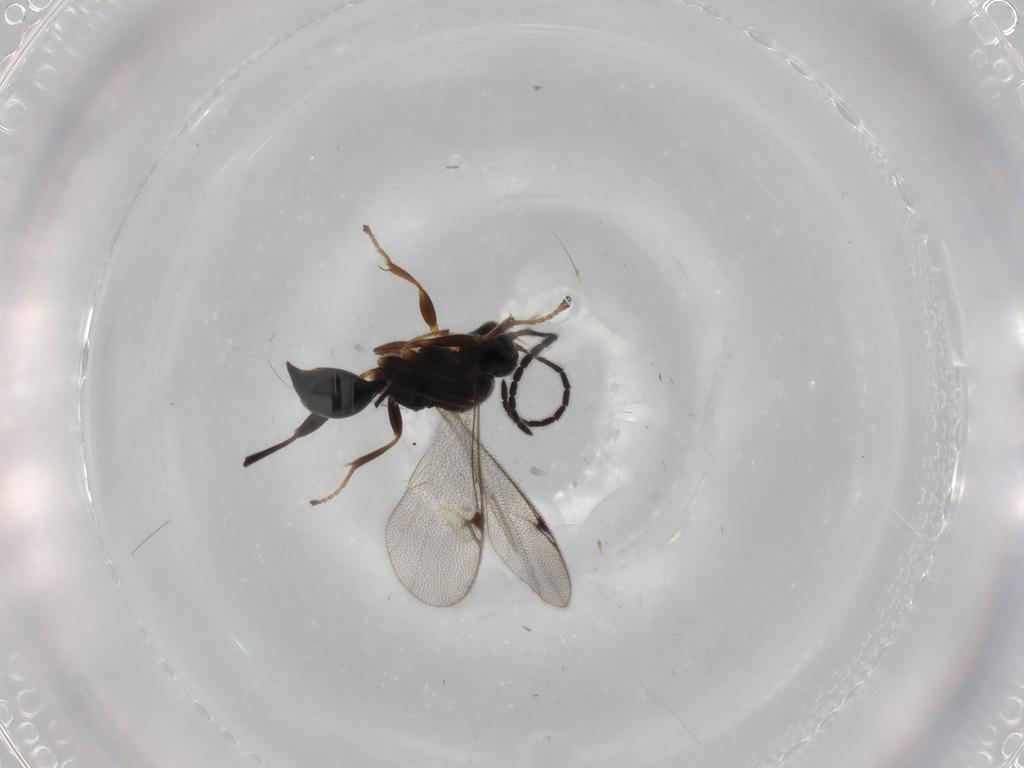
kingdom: Animalia
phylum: Arthropoda
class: Insecta
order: Hymenoptera
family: Proctotrupidae
